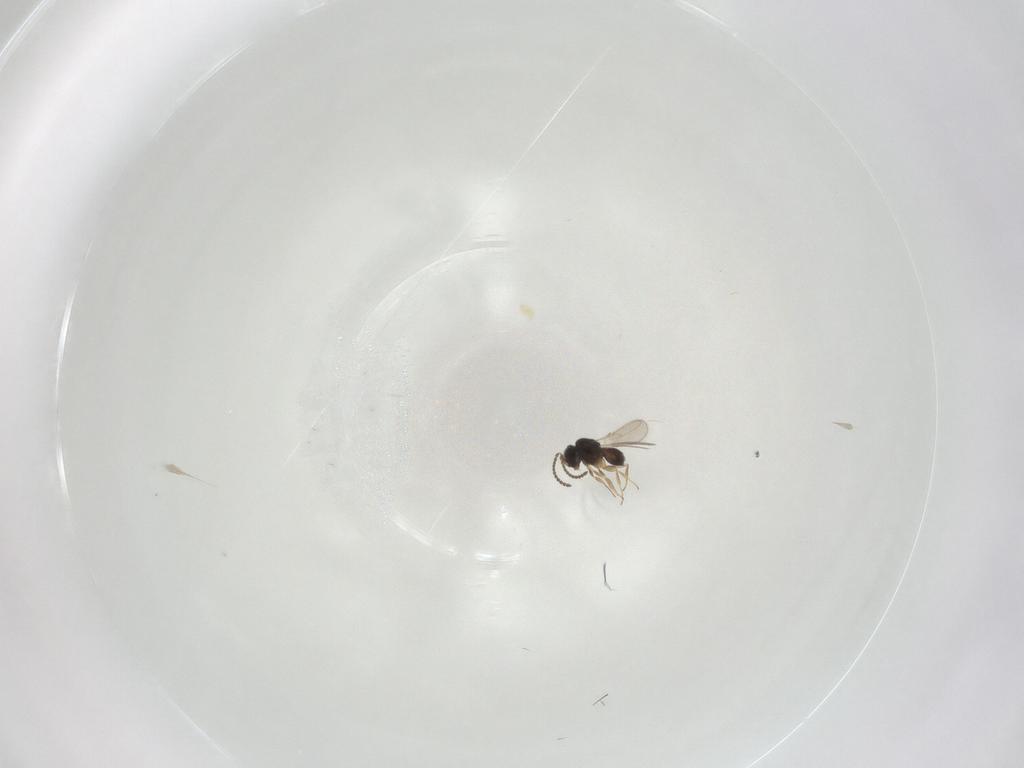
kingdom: Animalia
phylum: Arthropoda
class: Insecta
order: Hymenoptera
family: Scelionidae
